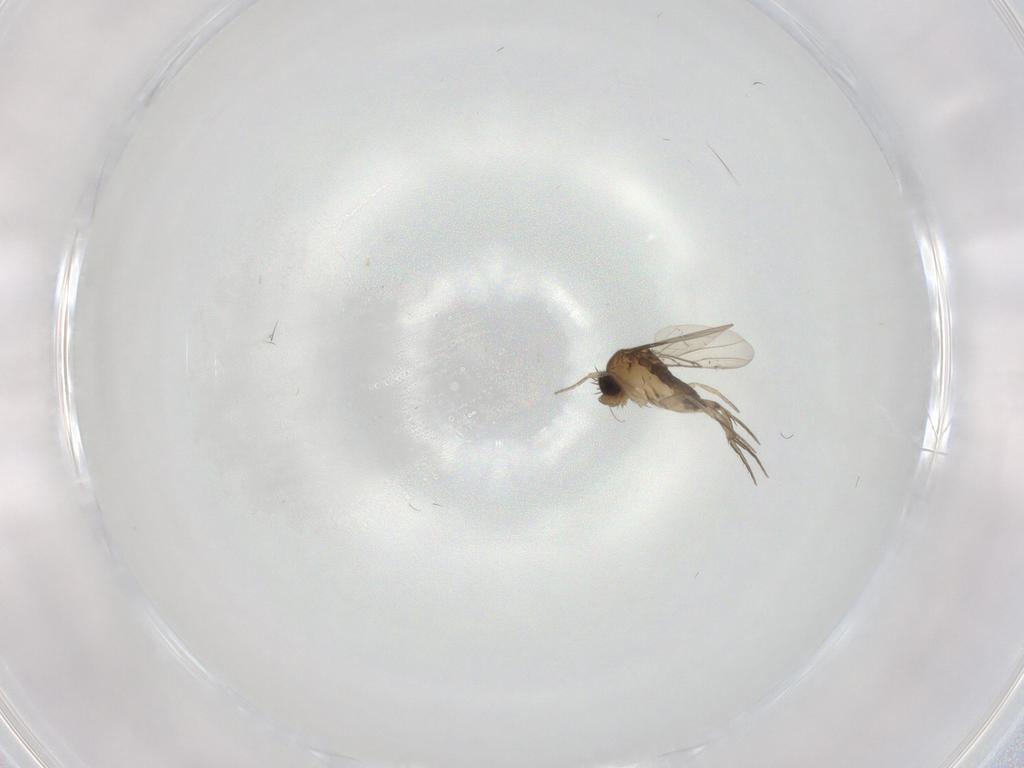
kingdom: Animalia
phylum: Arthropoda
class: Insecta
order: Diptera
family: Phoridae
